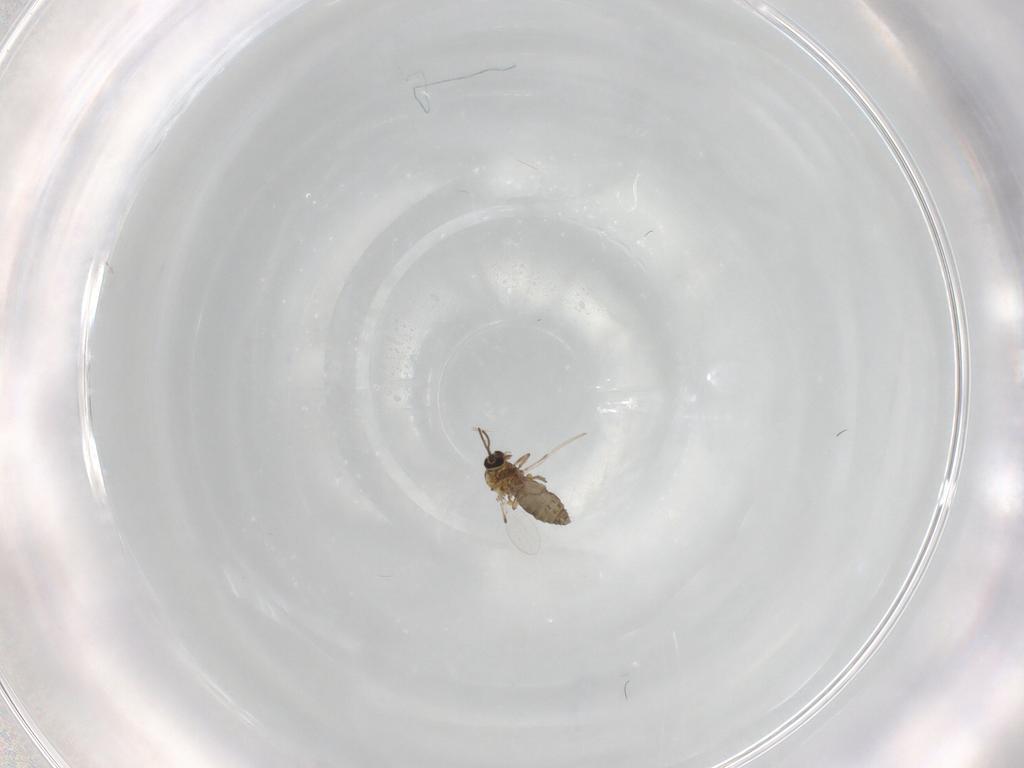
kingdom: Animalia
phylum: Arthropoda
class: Insecta
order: Diptera
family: Ceratopogonidae
